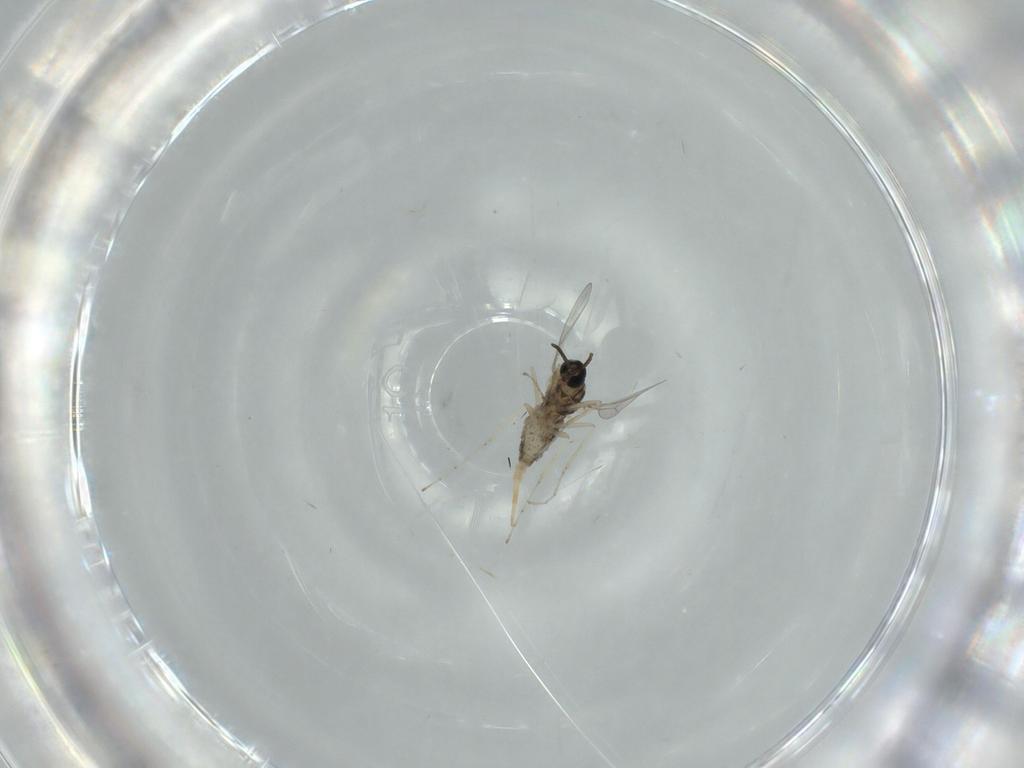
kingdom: Animalia
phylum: Arthropoda
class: Insecta
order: Diptera
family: Cecidomyiidae
